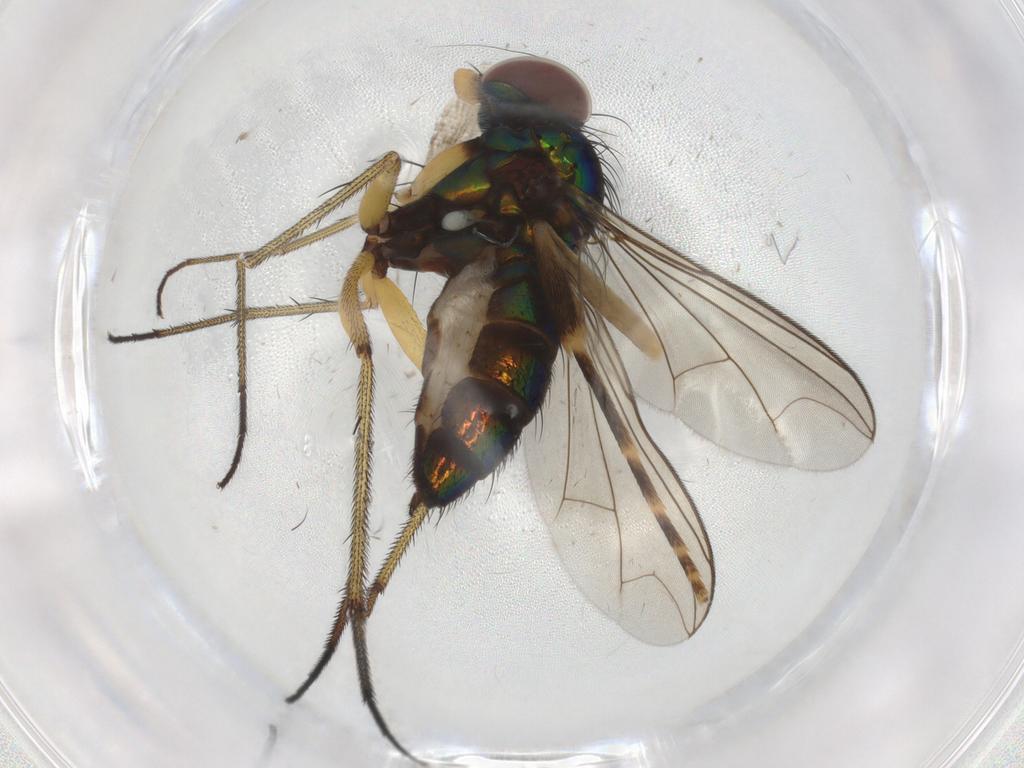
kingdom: Animalia
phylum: Arthropoda
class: Insecta
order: Diptera
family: Dolichopodidae
